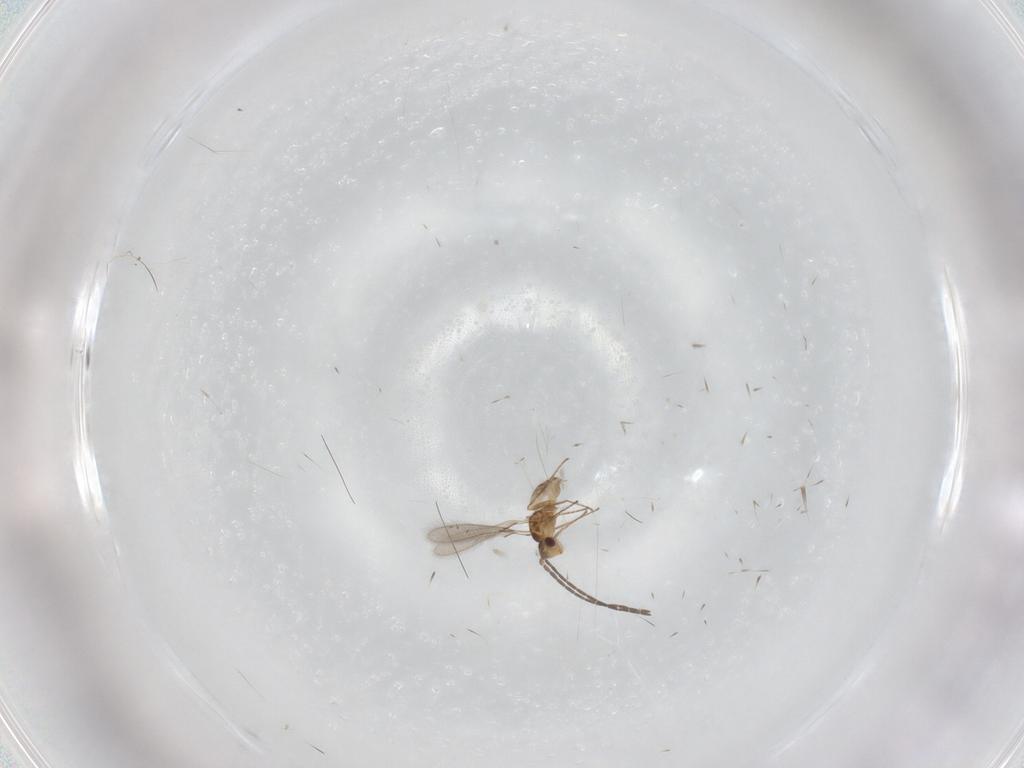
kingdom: Animalia
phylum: Arthropoda
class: Insecta
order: Hymenoptera
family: Mymaridae
